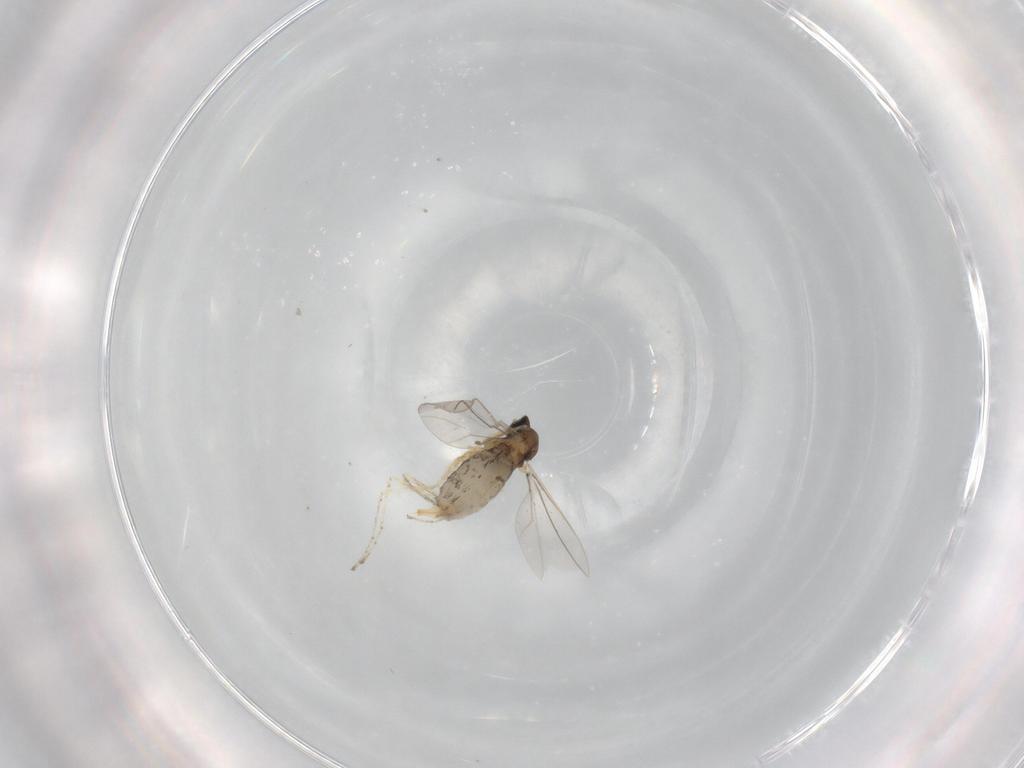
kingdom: Animalia
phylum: Arthropoda
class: Insecta
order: Diptera
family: Cecidomyiidae
